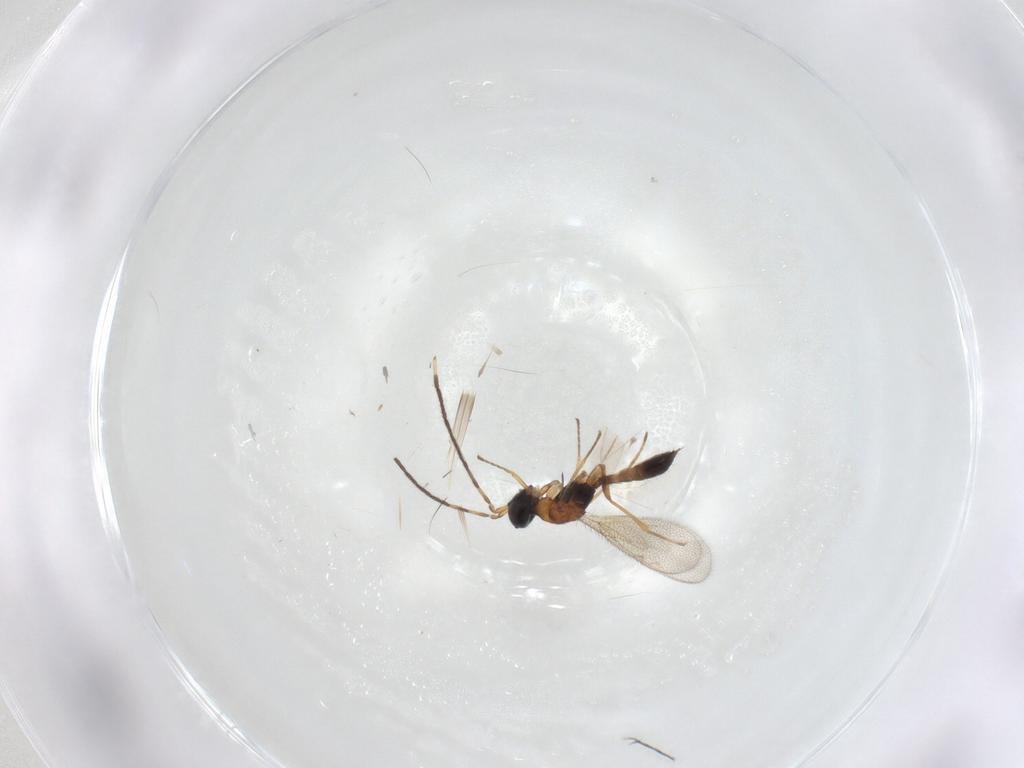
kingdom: Animalia
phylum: Arthropoda
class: Insecta
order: Hymenoptera
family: Pteromalidae
